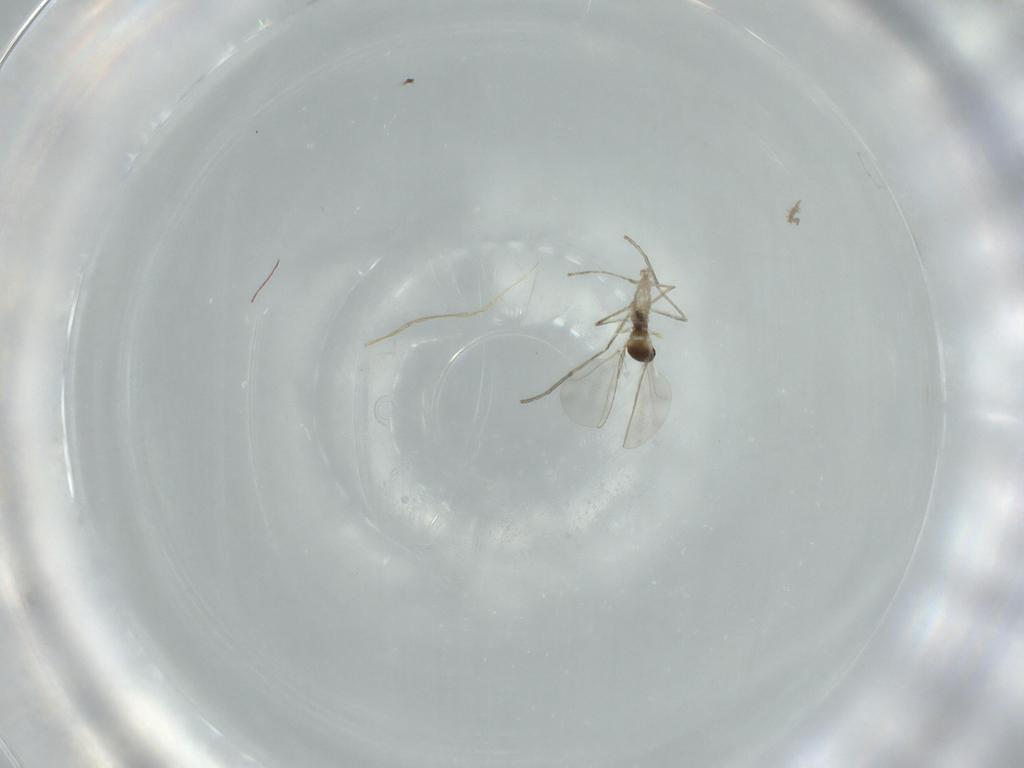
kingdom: Animalia
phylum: Arthropoda
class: Insecta
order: Diptera
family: Cecidomyiidae
